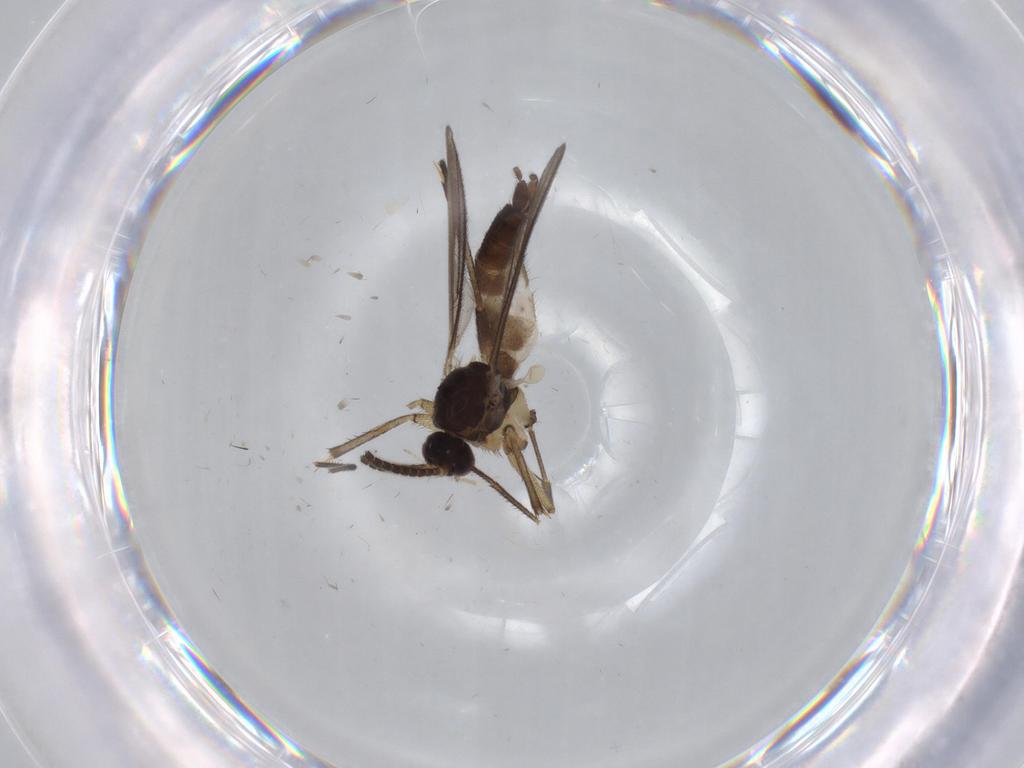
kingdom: Animalia
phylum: Arthropoda
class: Insecta
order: Diptera
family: Mycetophilidae
